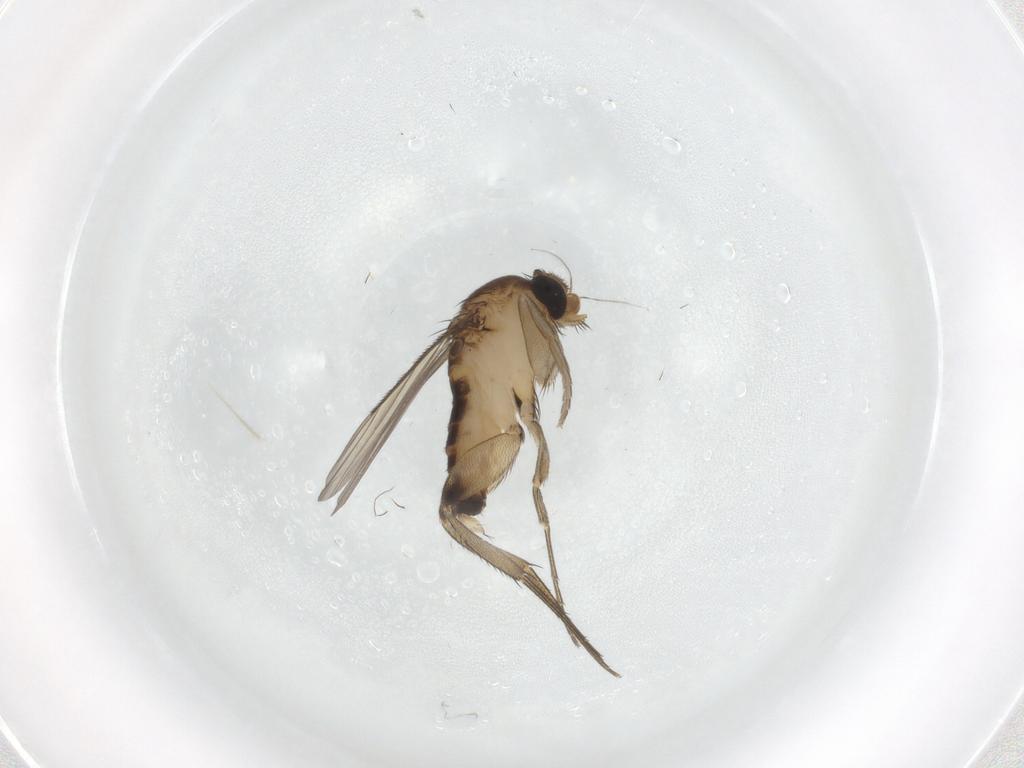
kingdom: Animalia
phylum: Arthropoda
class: Insecta
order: Diptera
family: Phoridae
